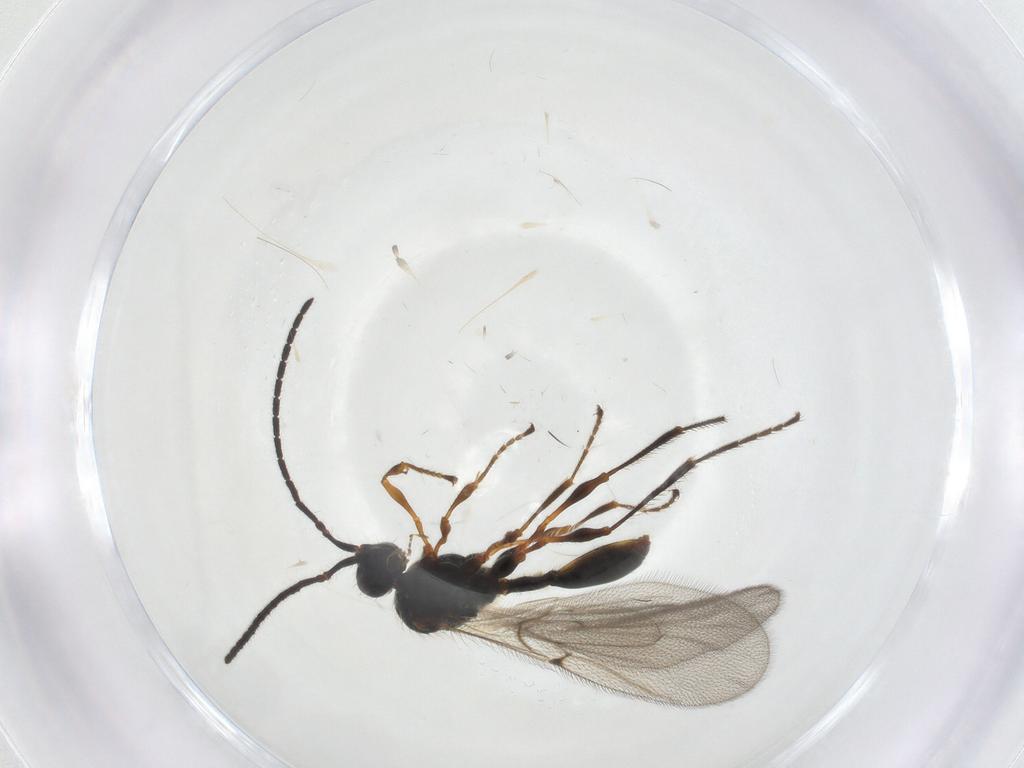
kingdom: Animalia
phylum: Arthropoda
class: Insecta
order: Hymenoptera
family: Diapriidae
